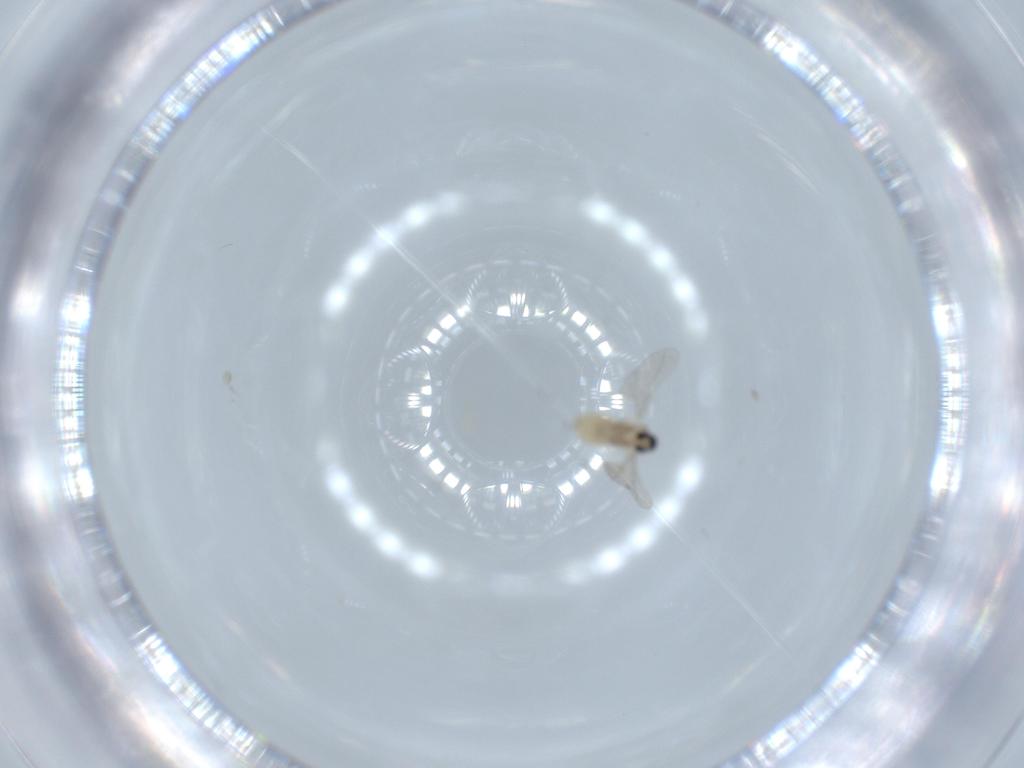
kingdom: Animalia
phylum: Arthropoda
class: Insecta
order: Diptera
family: Cecidomyiidae
